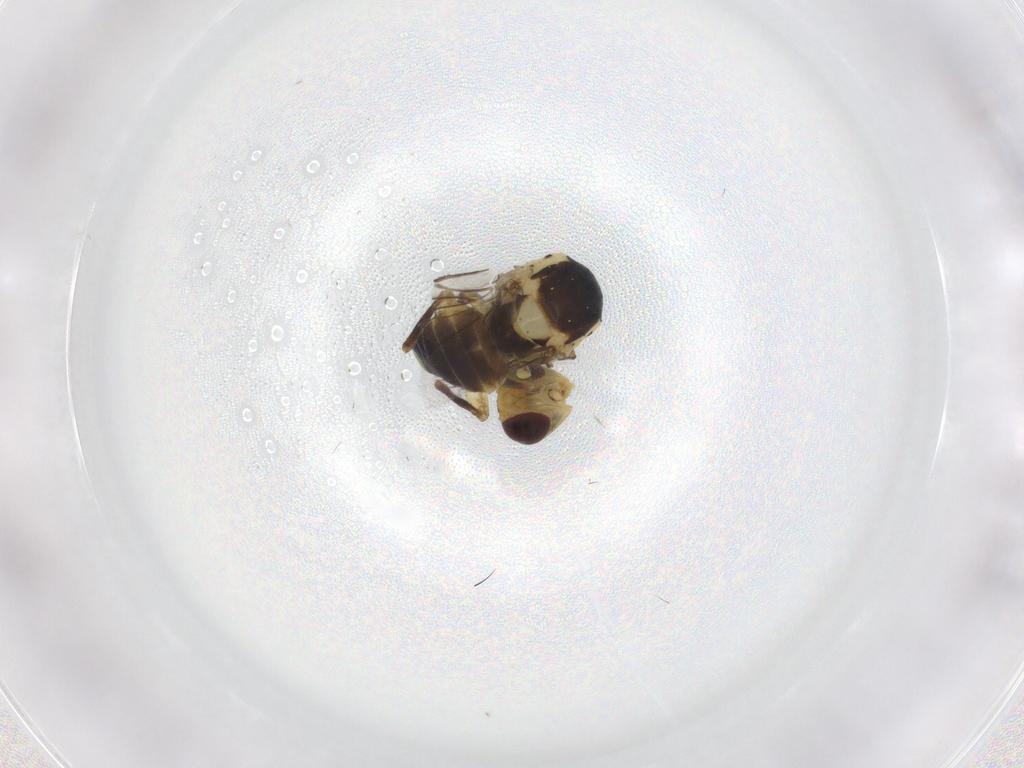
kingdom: Animalia
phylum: Arthropoda
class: Insecta
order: Diptera
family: Agromyzidae
